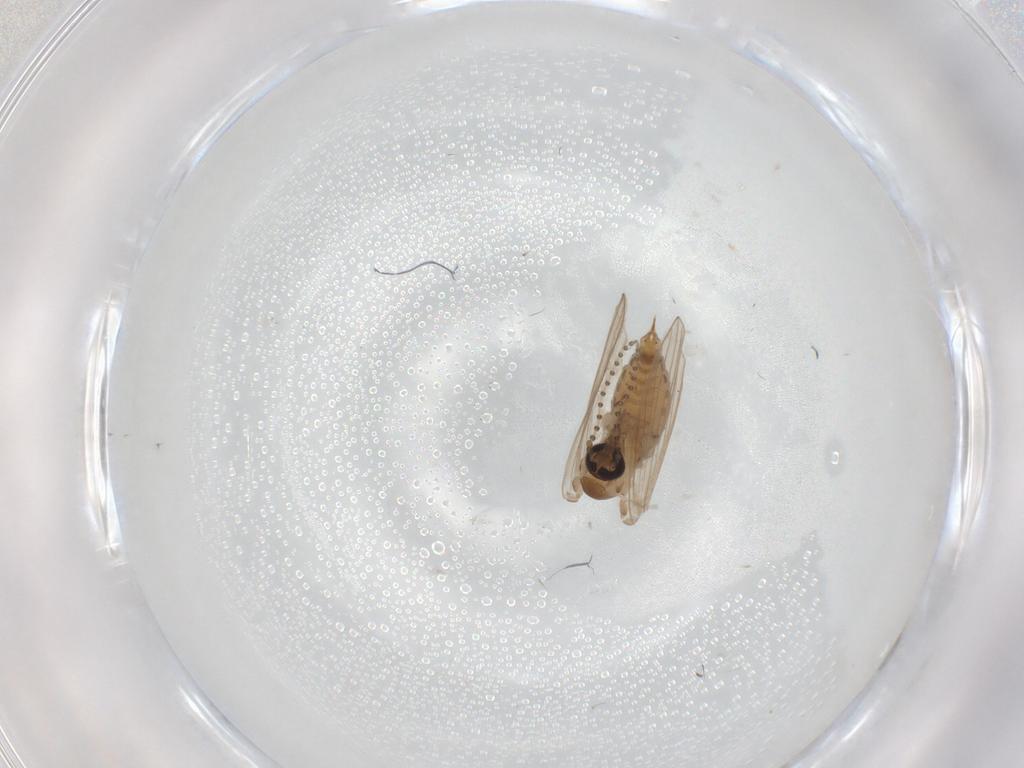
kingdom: Animalia
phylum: Arthropoda
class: Insecta
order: Diptera
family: Psychodidae
